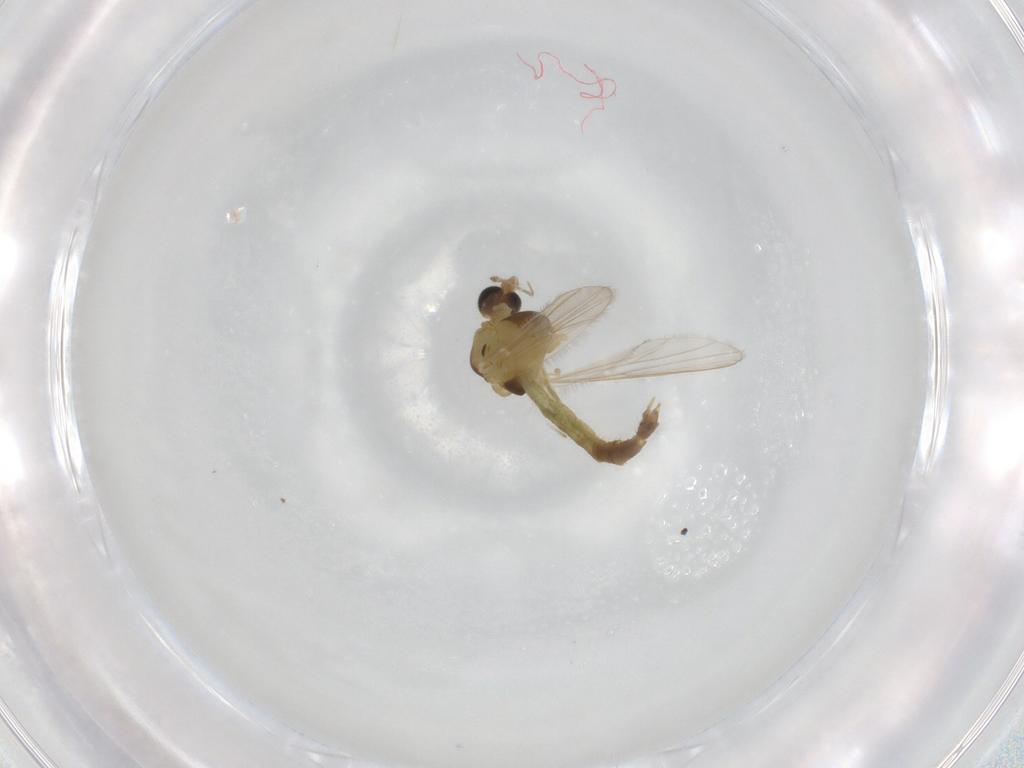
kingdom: Animalia
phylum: Arthropoda
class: Insecta
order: Diptera
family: Chironomidae
